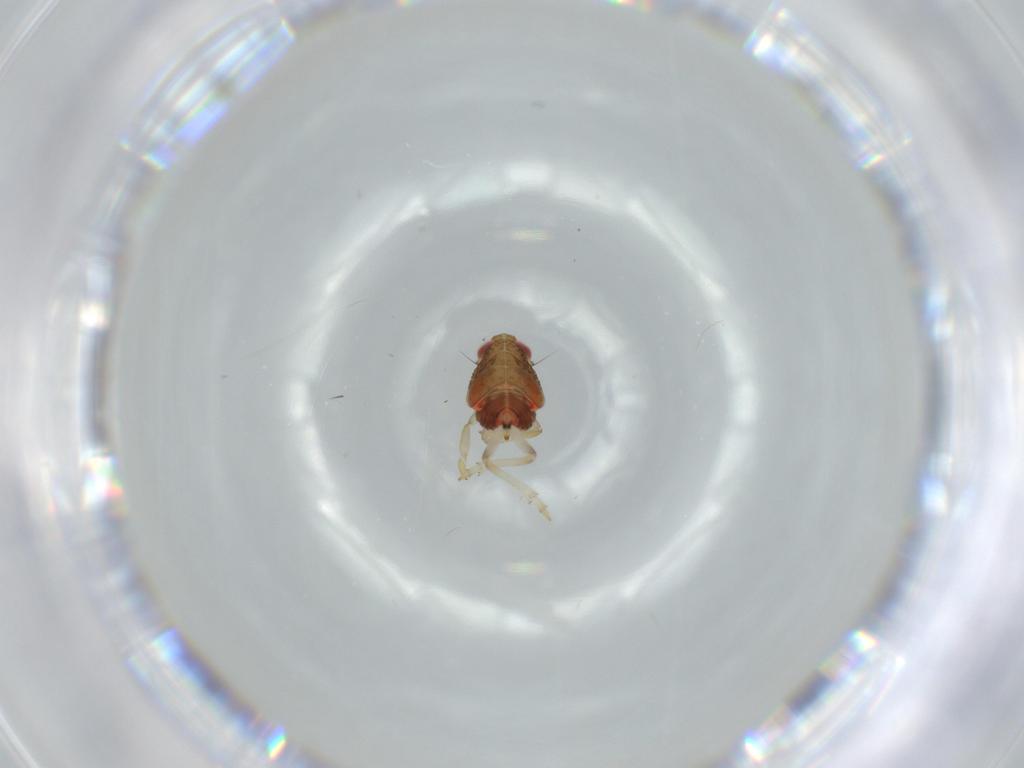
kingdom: Animalia
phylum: Arthropoda
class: Insecta
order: Hemiptera
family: Issidae
